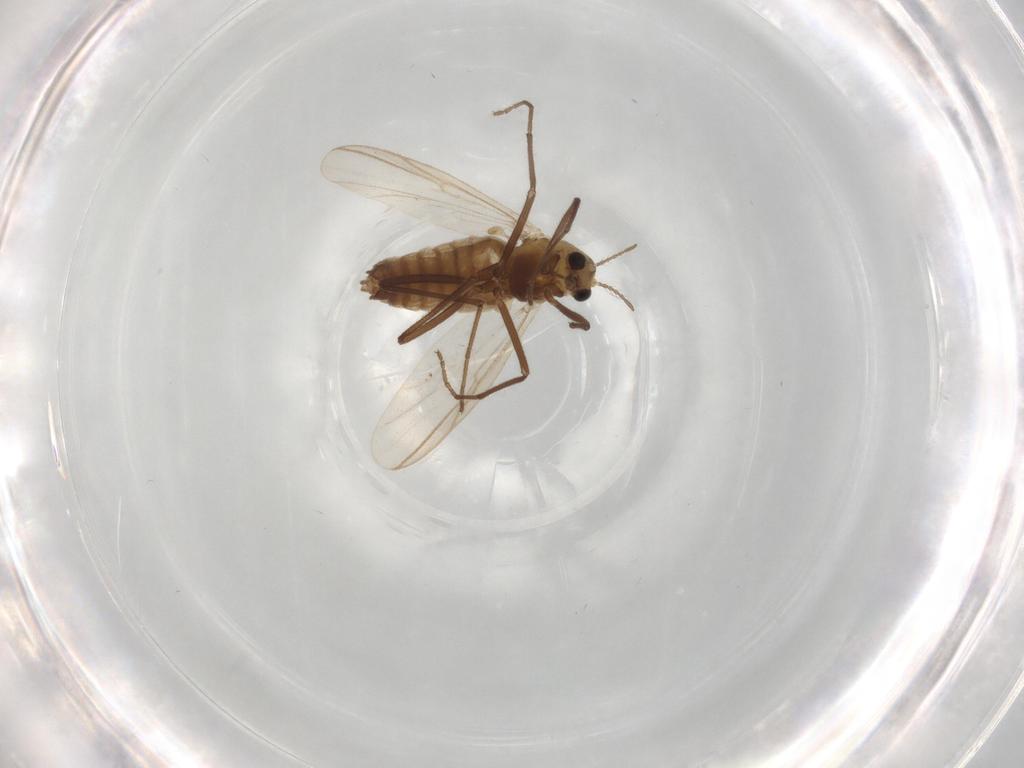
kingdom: Animalia
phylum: Arthropoda
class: Insecta
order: Diptera
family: Chironomidae
